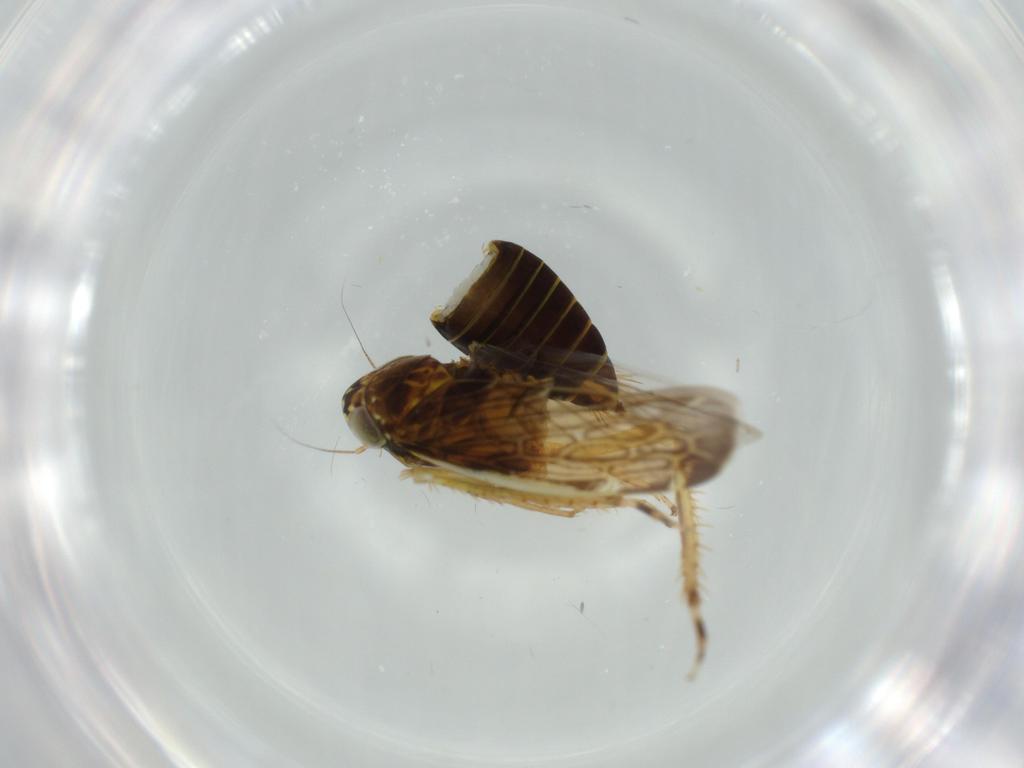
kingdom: Animalia
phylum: Arthropoda
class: Insecta
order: Hemiptera
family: Cicadellidae
